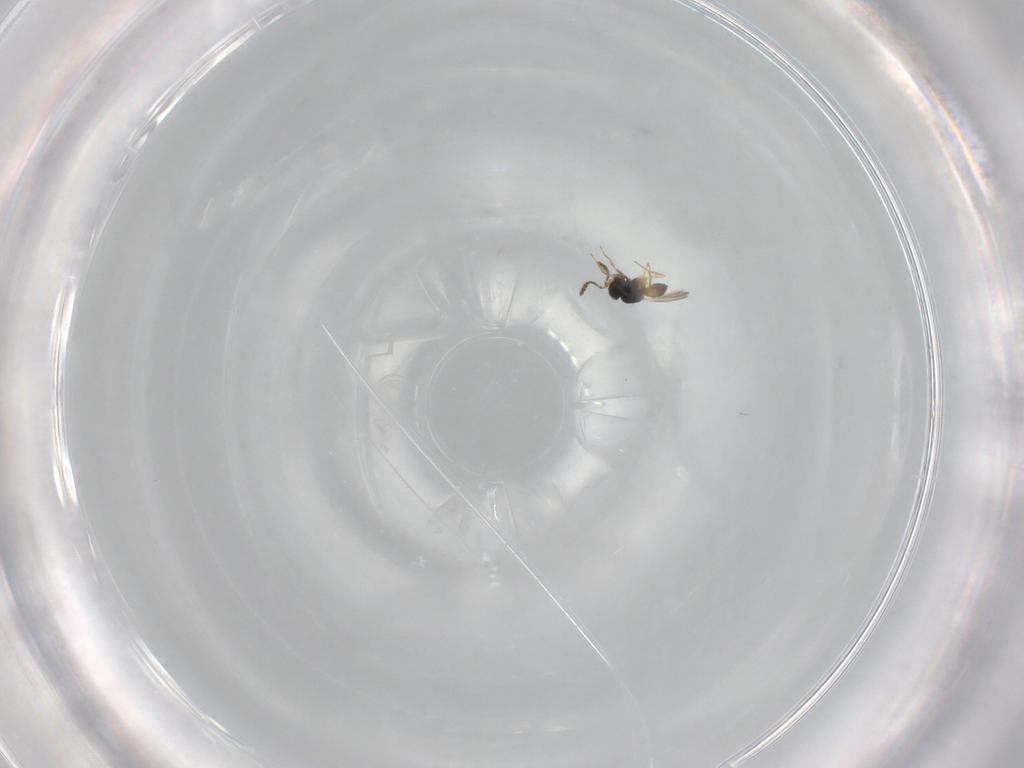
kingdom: Animalia
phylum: Arthropoda
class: Insecta
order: Hymenoptera
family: Scelionidae
